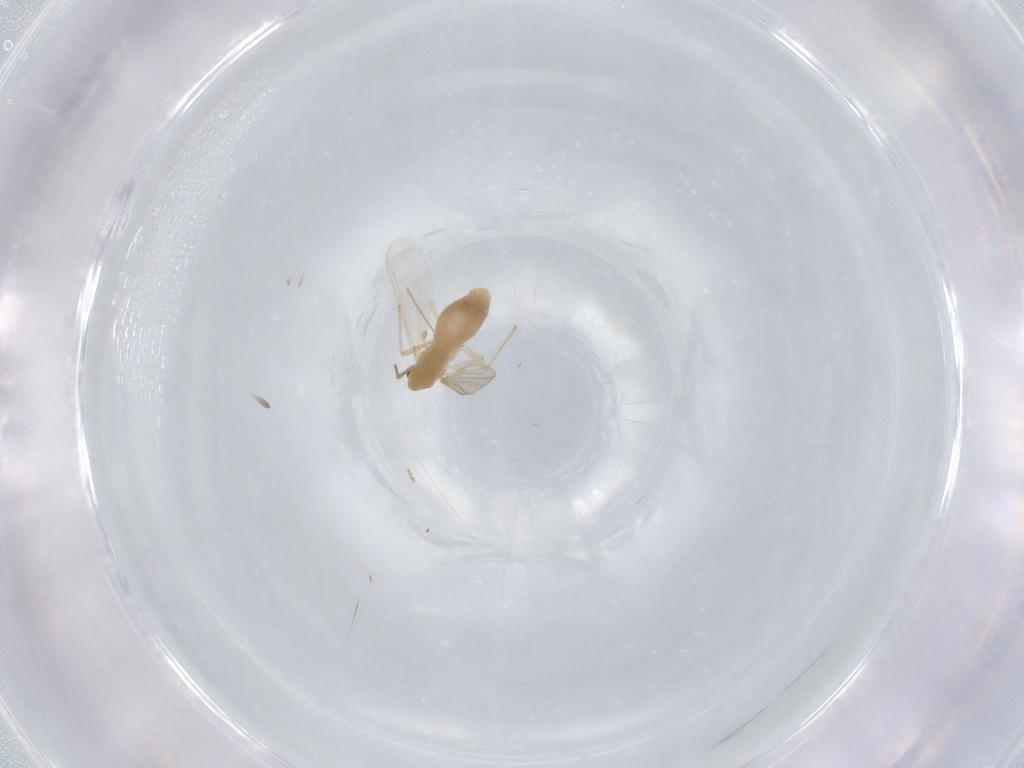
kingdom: Animalia
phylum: Arthropoda
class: Insecta
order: Diptera
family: Cecidomyiidae
